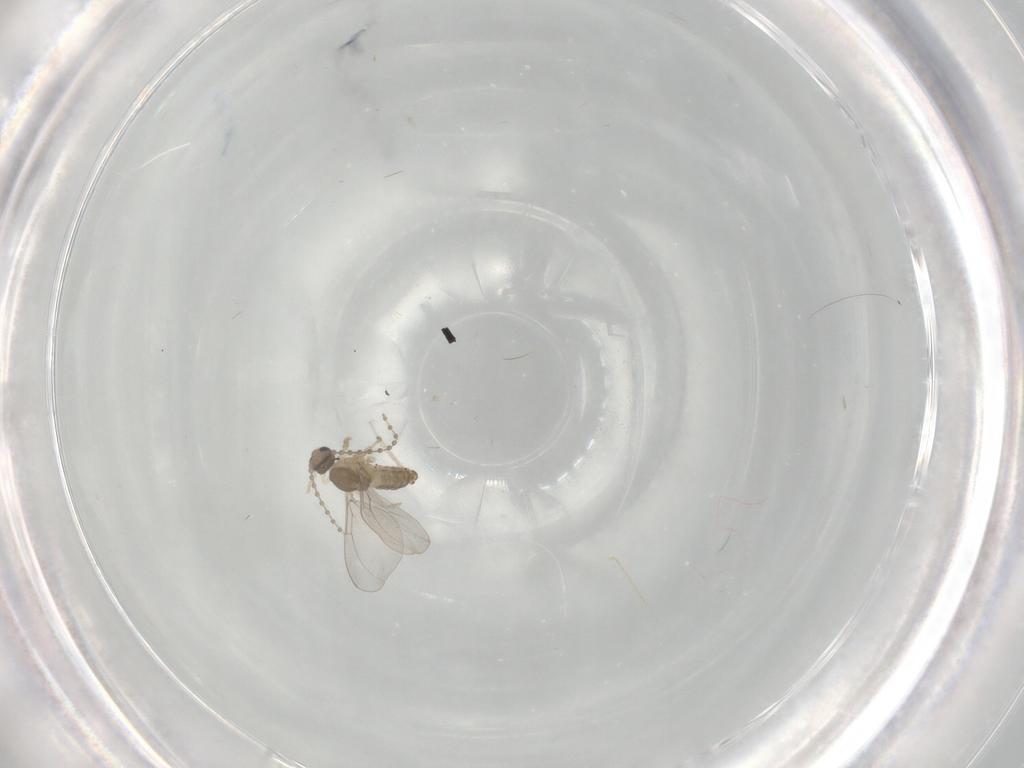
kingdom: Animalia
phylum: Arthropoda
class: Insecta
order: Diptera
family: Cecidomyiidae
